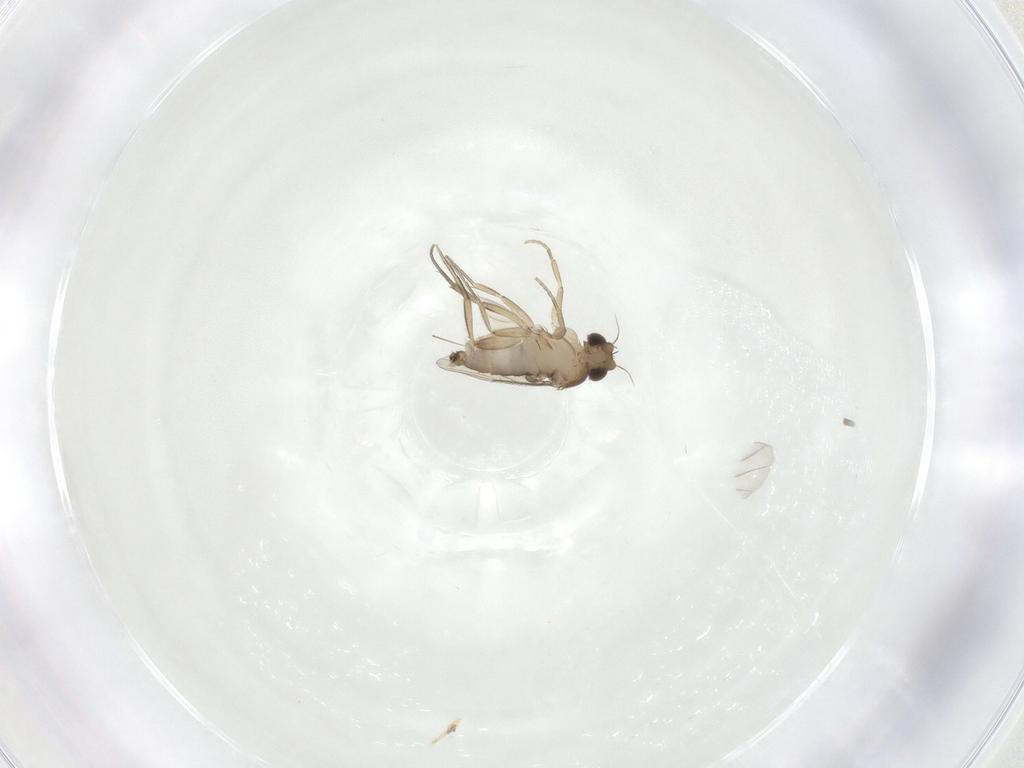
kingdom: Animalia
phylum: Arthropoda
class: Insecta
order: Diptera
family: Phoridae
